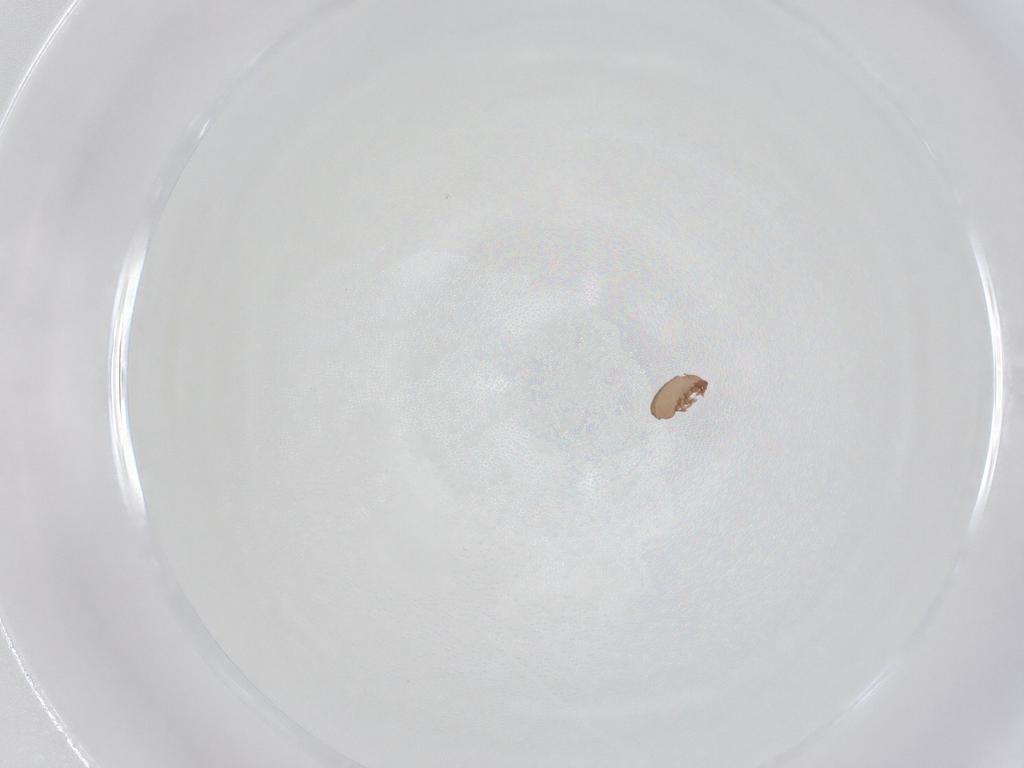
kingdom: Animalia
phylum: Arthropoda
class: Arachnida
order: Sarcoptiformes
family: Eremaeidae
